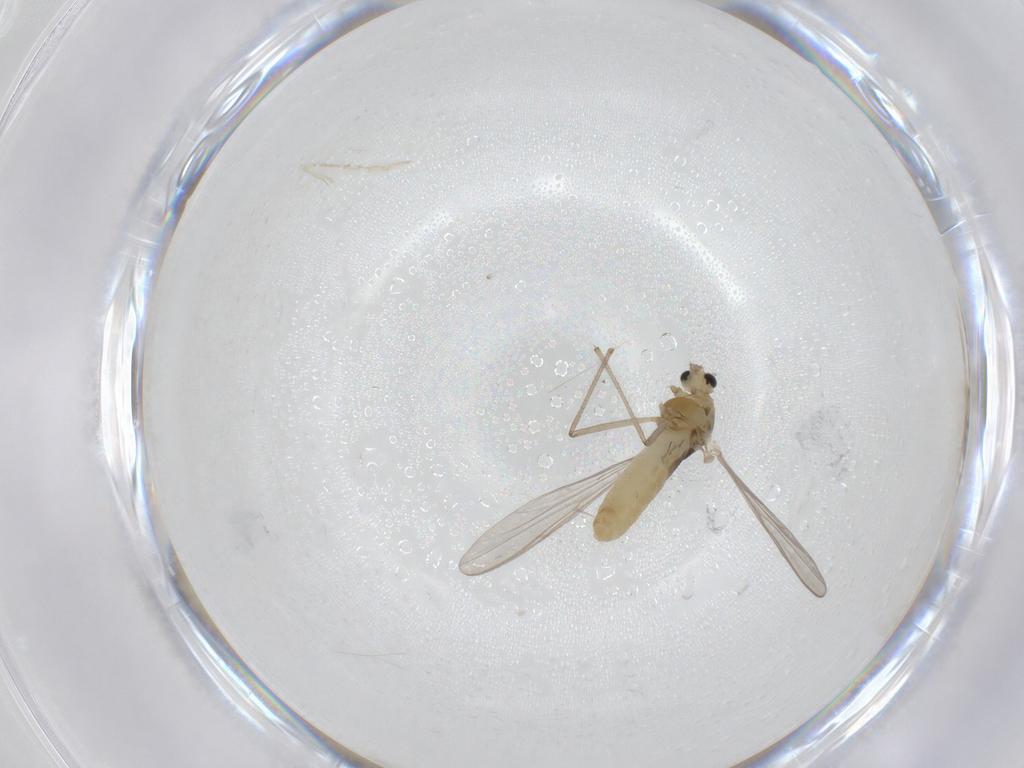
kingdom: Animalia
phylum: Arthropoda
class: Insecta
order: Diptera
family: Chironomidae
